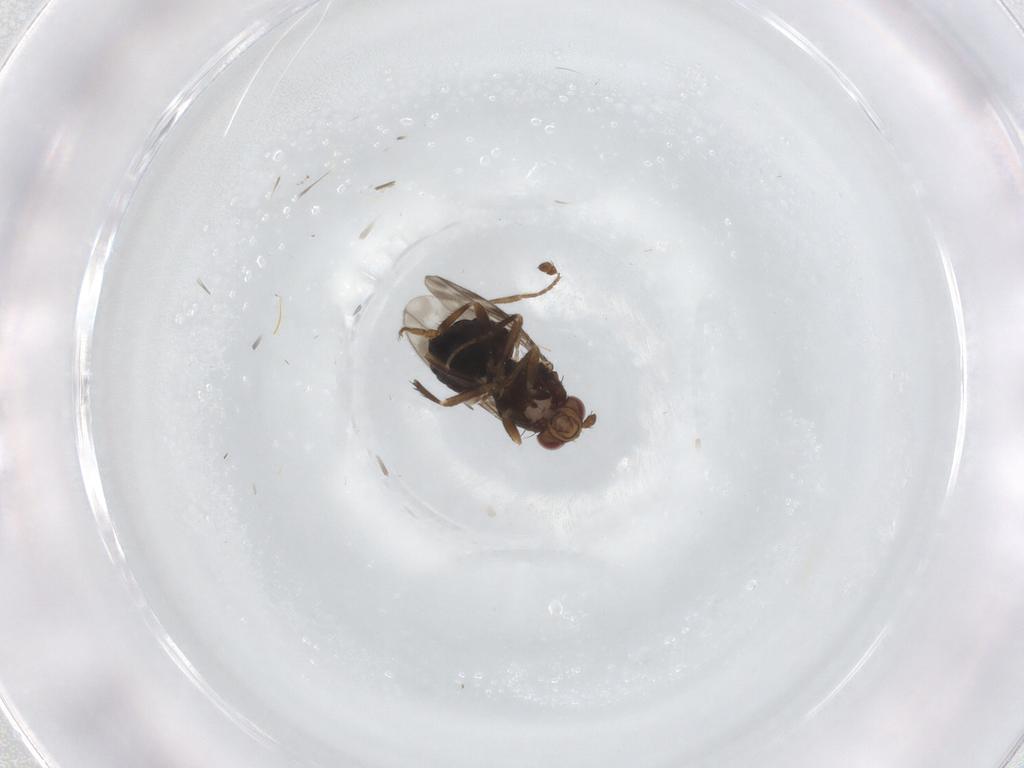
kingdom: Animalia
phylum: Arthropoda
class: Insecta
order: Diptera
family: Sphaeroceridae
